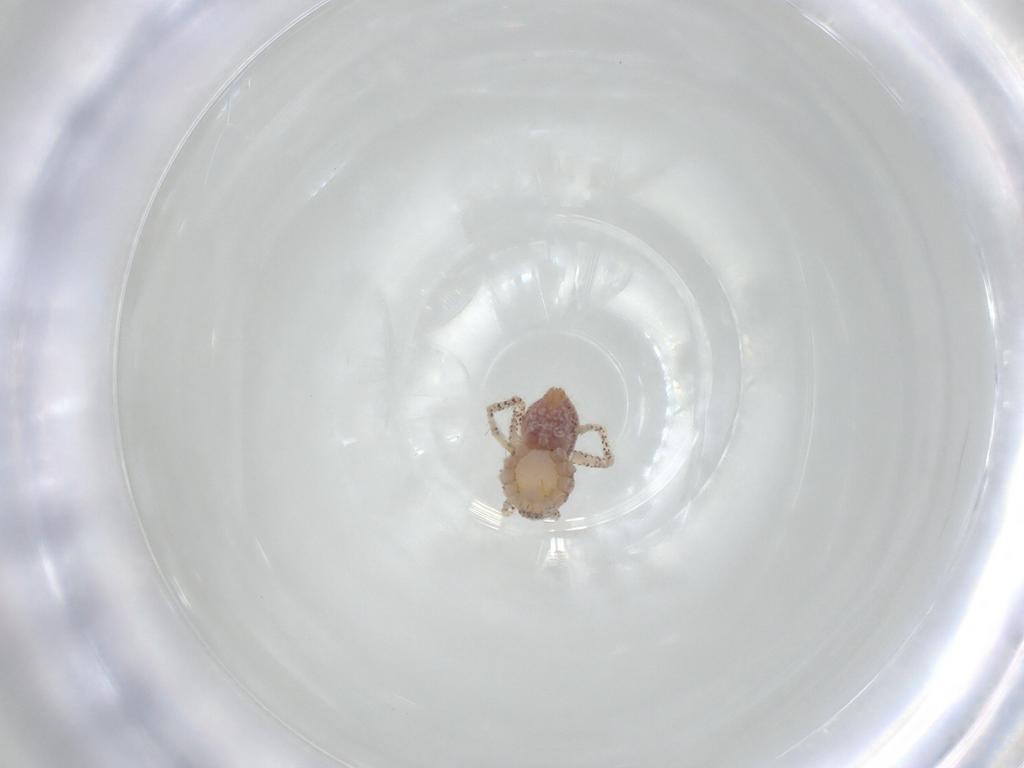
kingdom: Animalia
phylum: Arthropoda
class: Arachnida
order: Araneae
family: Philodromidae
